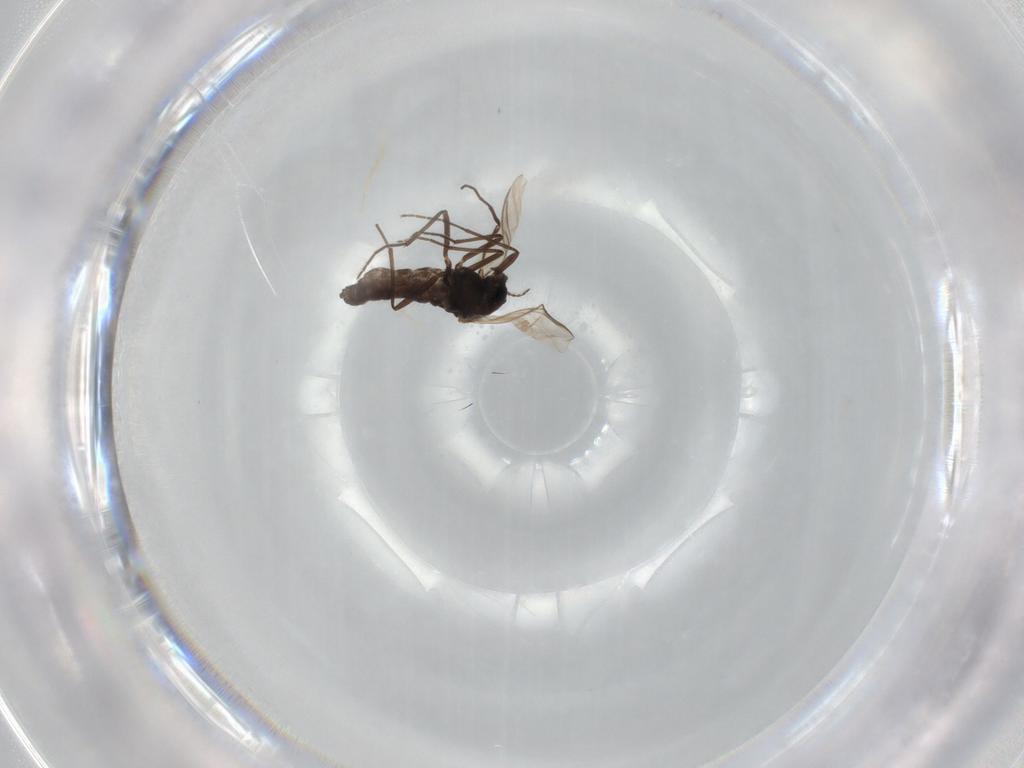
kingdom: Animalia
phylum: Arthropoda
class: Insecta
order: Diptera
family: Chironomidae
